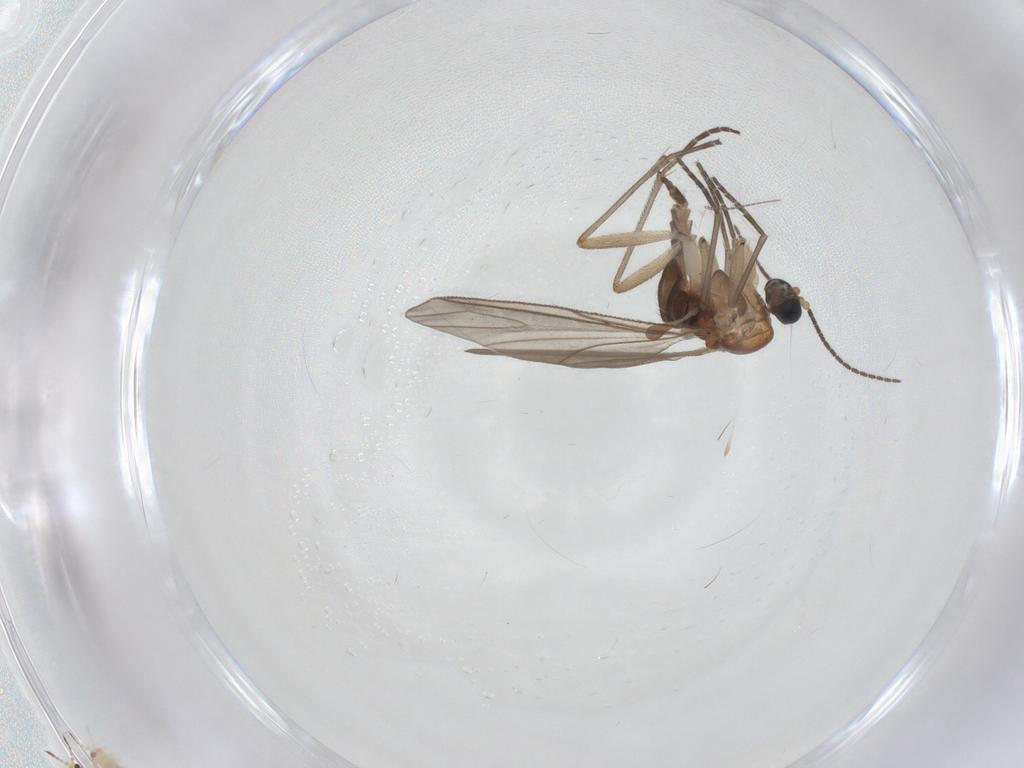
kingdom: Animalia
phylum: Arthropoda
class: Insecta
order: Diptera
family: Sciaridae
